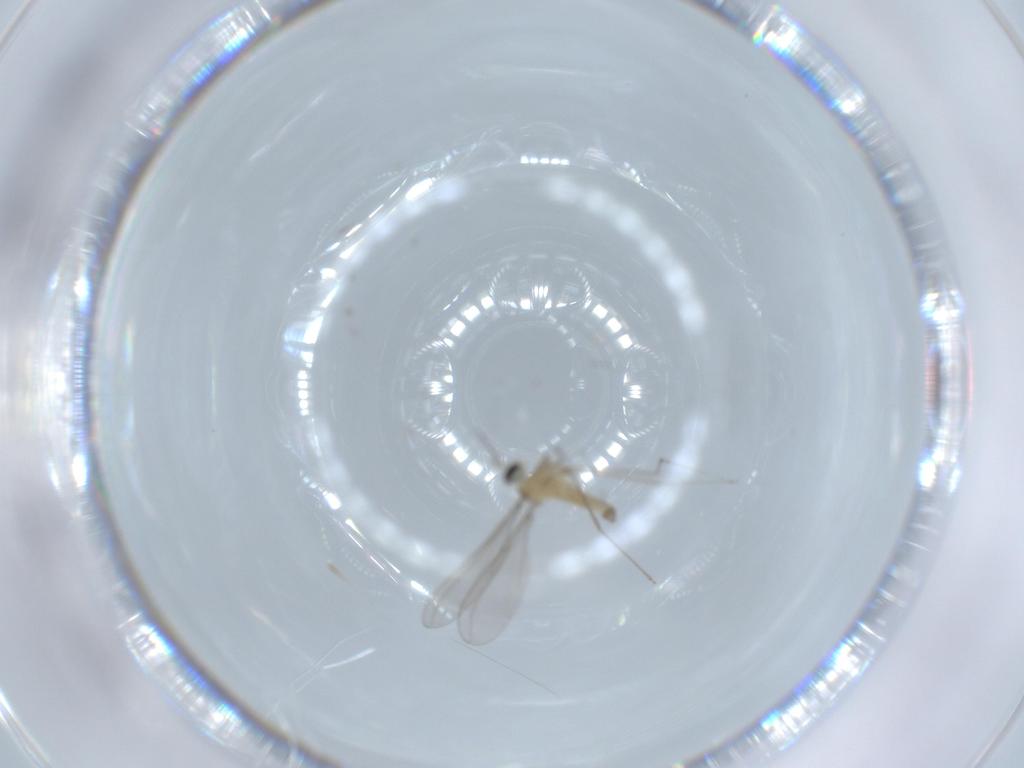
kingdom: Animalia
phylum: Arthropoda
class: Insecta
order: Diptera
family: Cecidomyiidae
